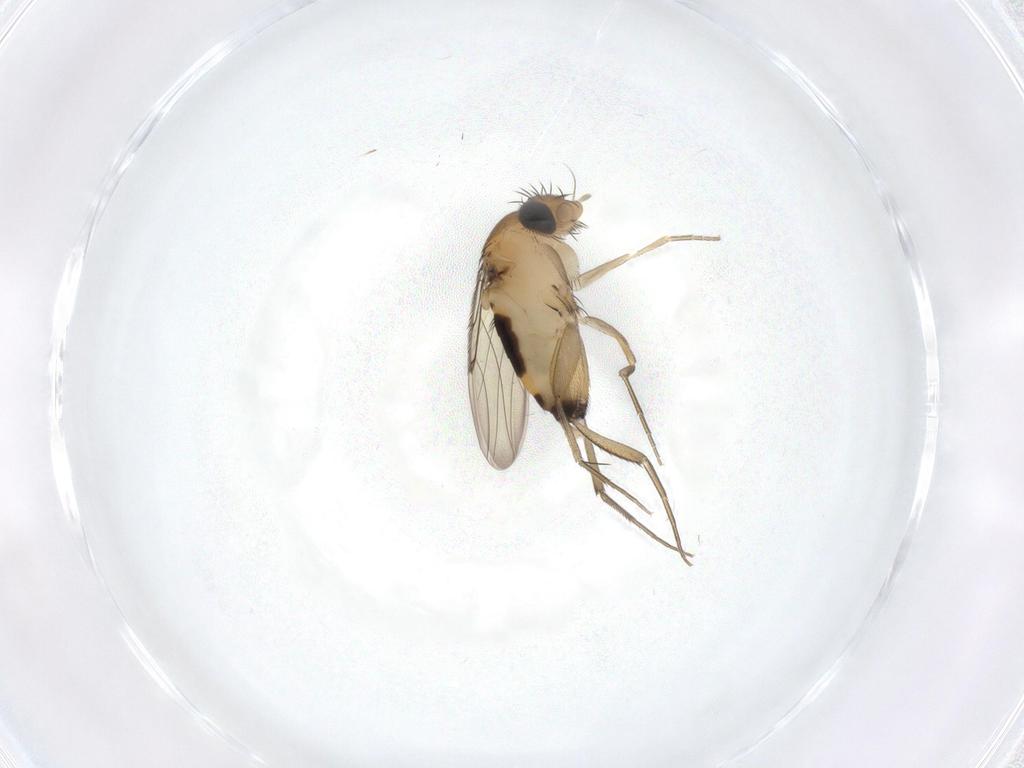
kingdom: Animalia
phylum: Arthropoda
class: Insecta
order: Diptera
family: Phoridae
